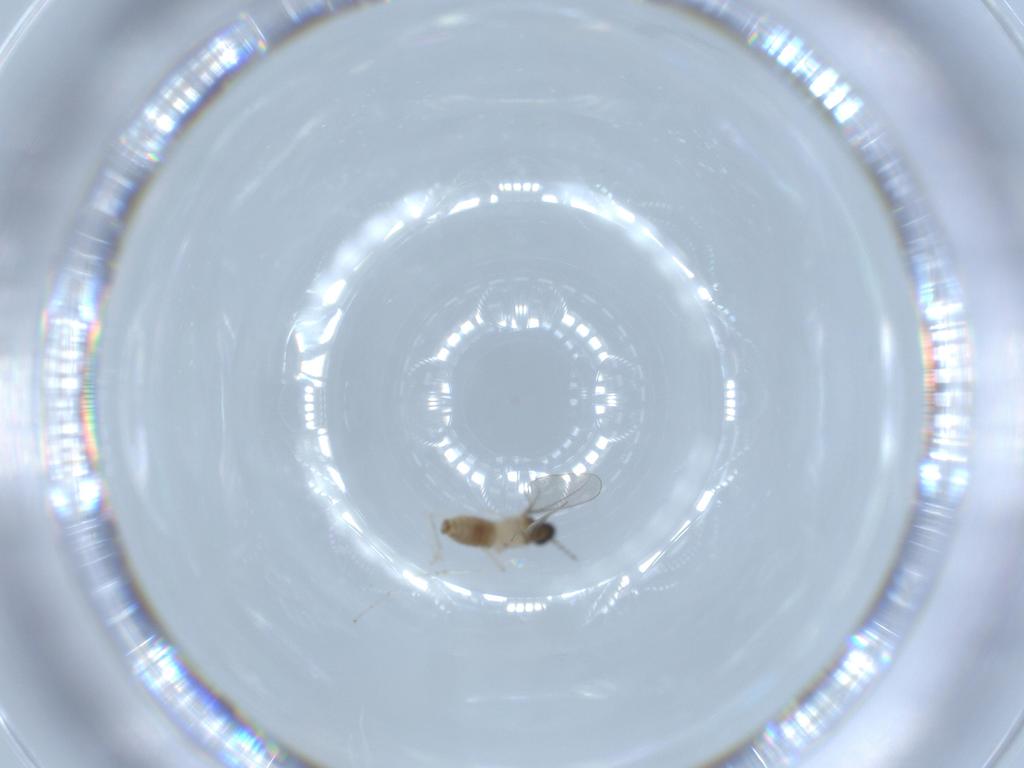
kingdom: Animalia
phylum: Arthropoda
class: Insecta
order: Diptera
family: Cecidomyiidae
